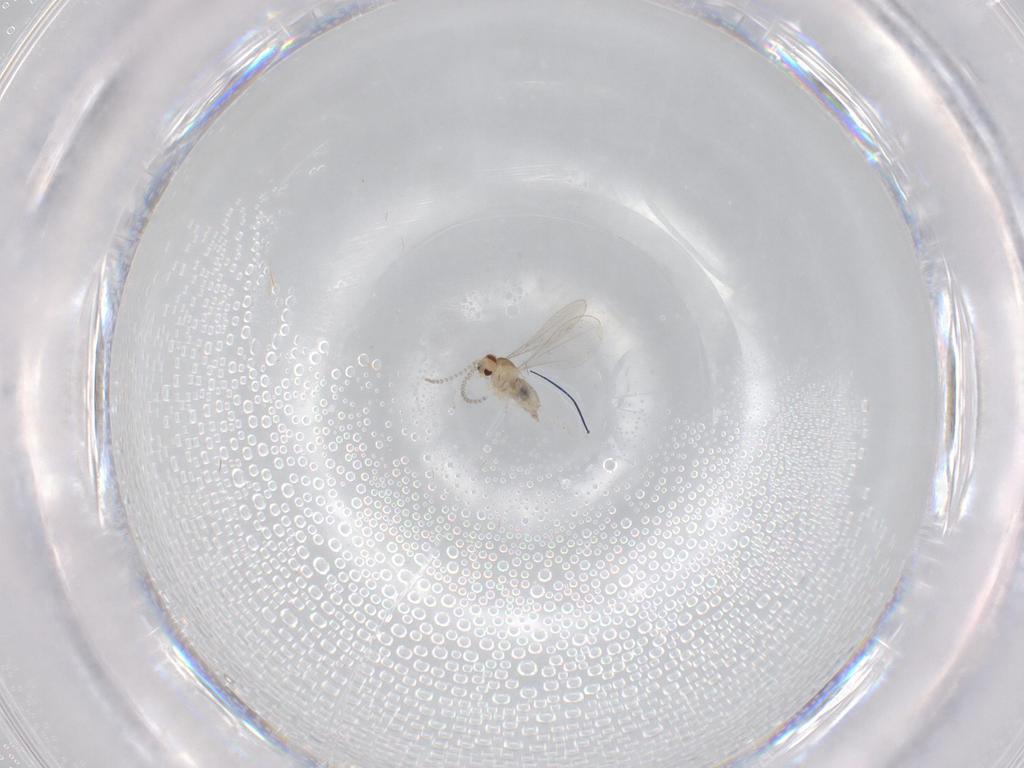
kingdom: Animalia
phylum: Arthropoda
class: Insecta
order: Diptera
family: Cecidomyiidae
